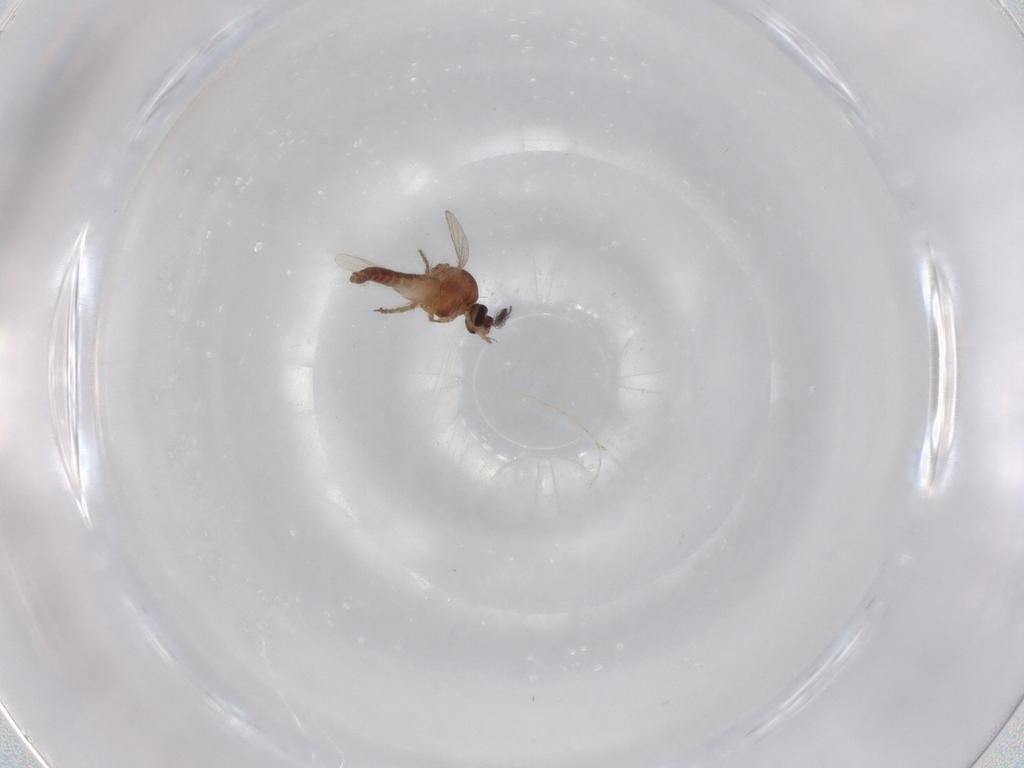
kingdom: Animalia
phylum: Arthropoda
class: Insecta
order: Diptera
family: Ceratopogonidae
